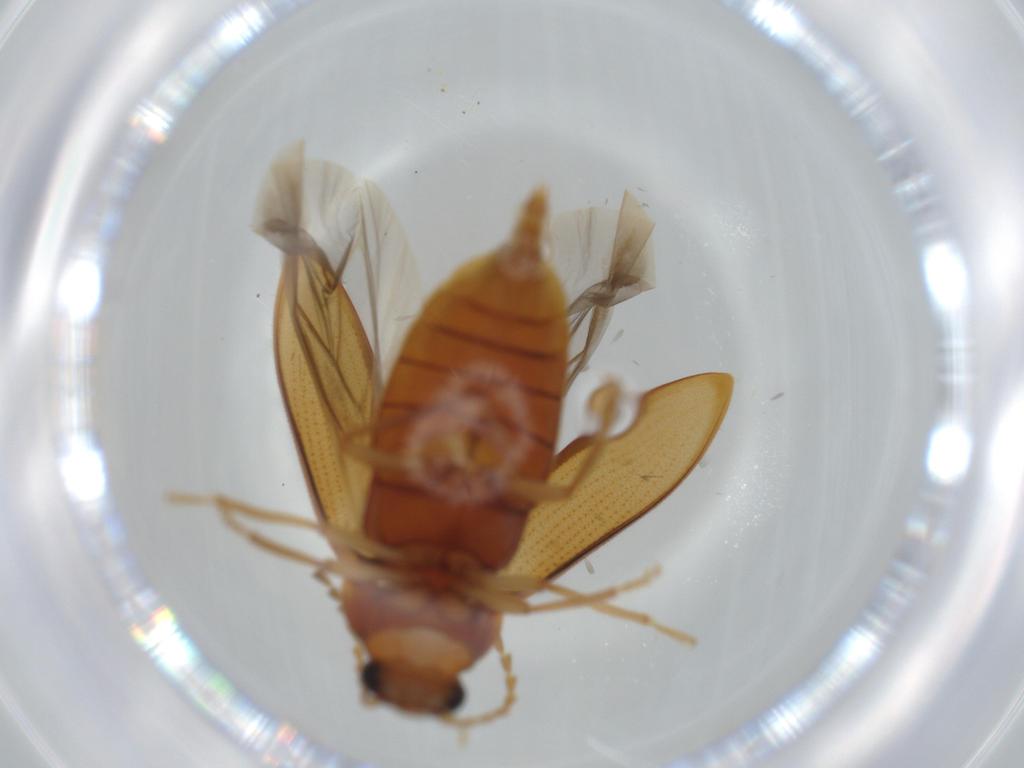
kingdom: Animalia
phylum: Arthropoda
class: Insecta
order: Coleoptera
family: Ptilodactylidae
